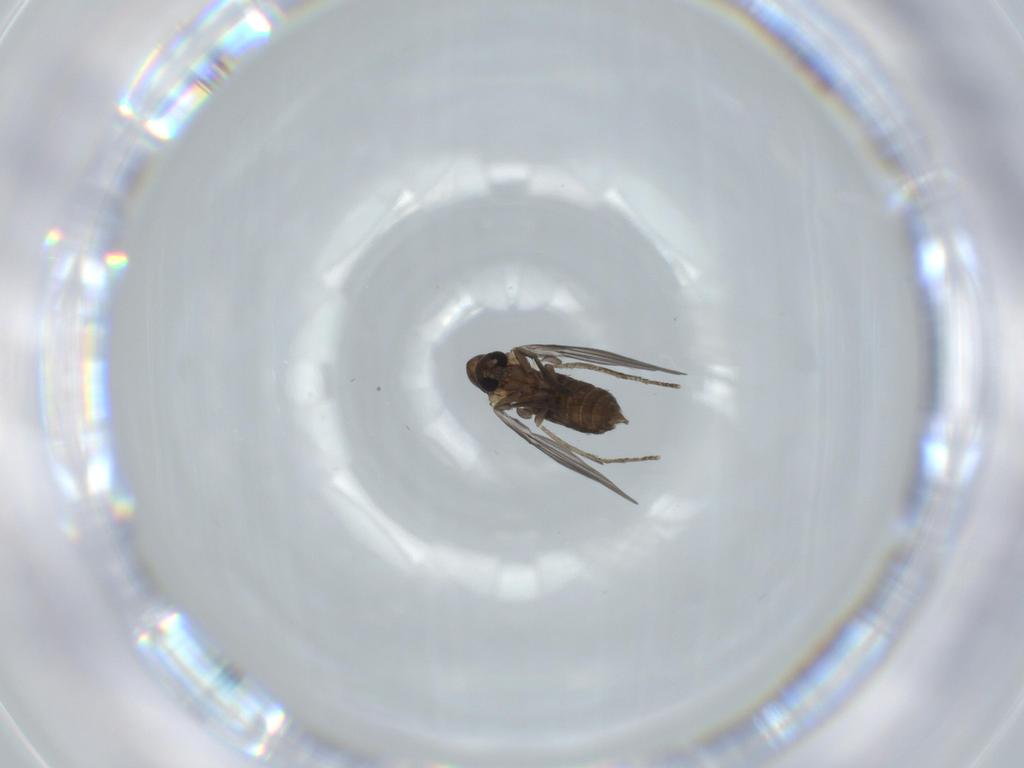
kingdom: Animalia
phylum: Arthropoda
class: Insecta
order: Diptera
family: Psychodidae
